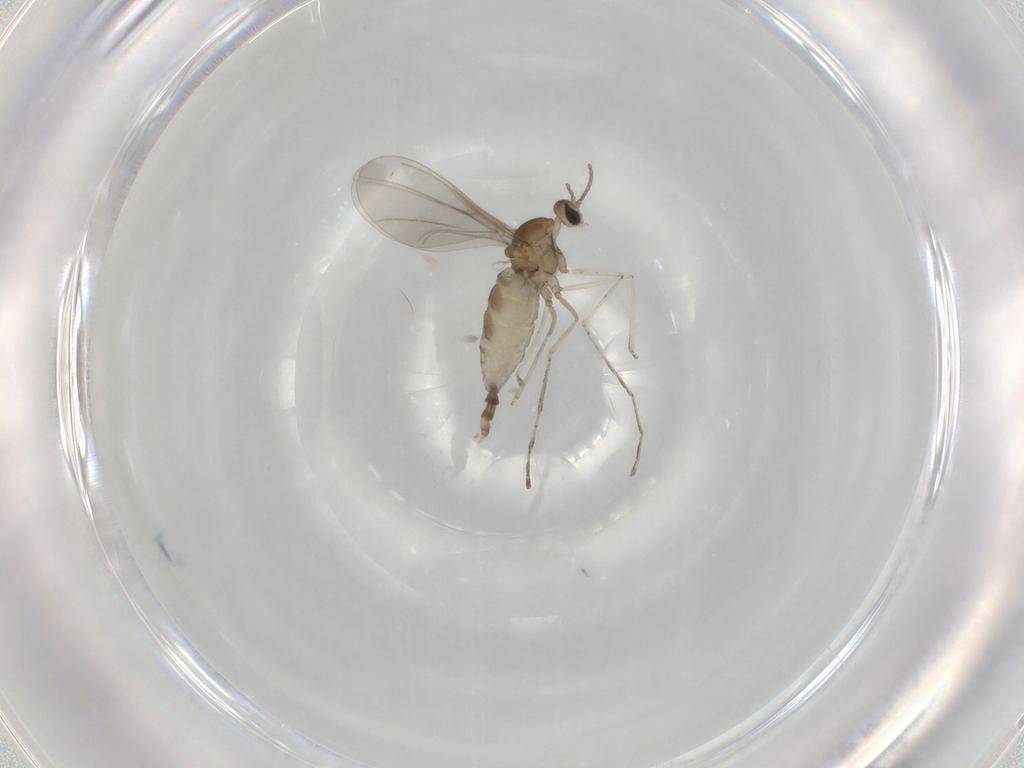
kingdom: Animalia
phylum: Arthropoda
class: Insecta
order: Diptera
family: Cecidomyiidae
